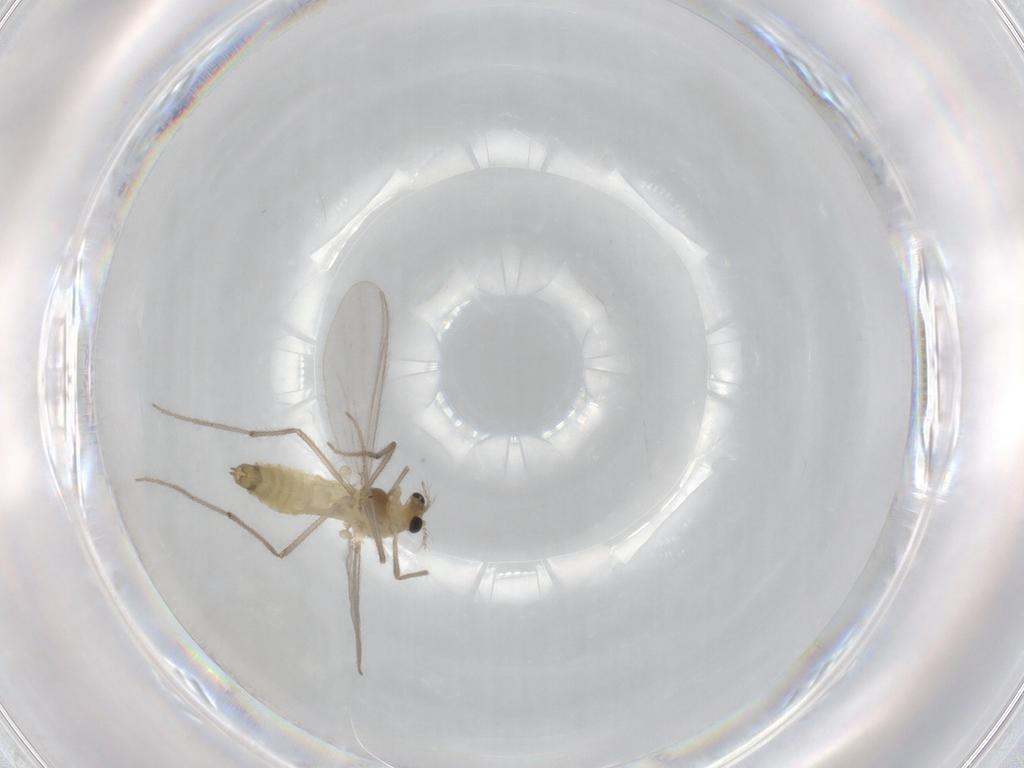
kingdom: Animalia
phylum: Arthropoda
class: Insecta
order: Diptera
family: Chironomidae
